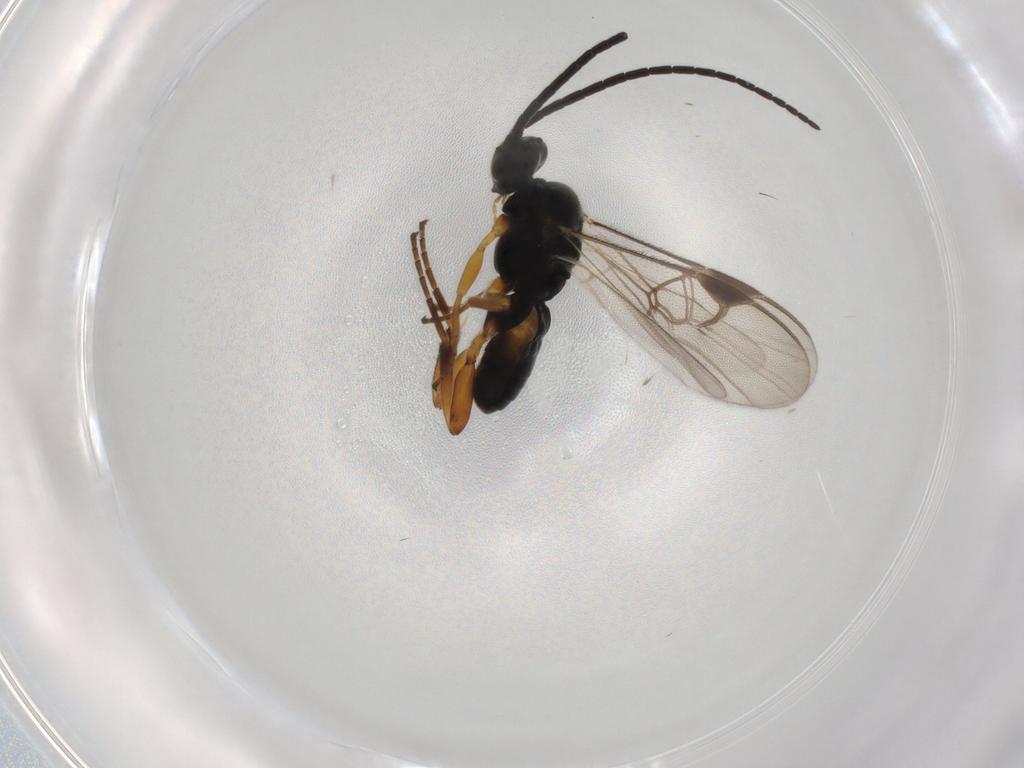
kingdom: Animalia
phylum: Arthropoda
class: Insecta
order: Hymenoptera
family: Braconidae
